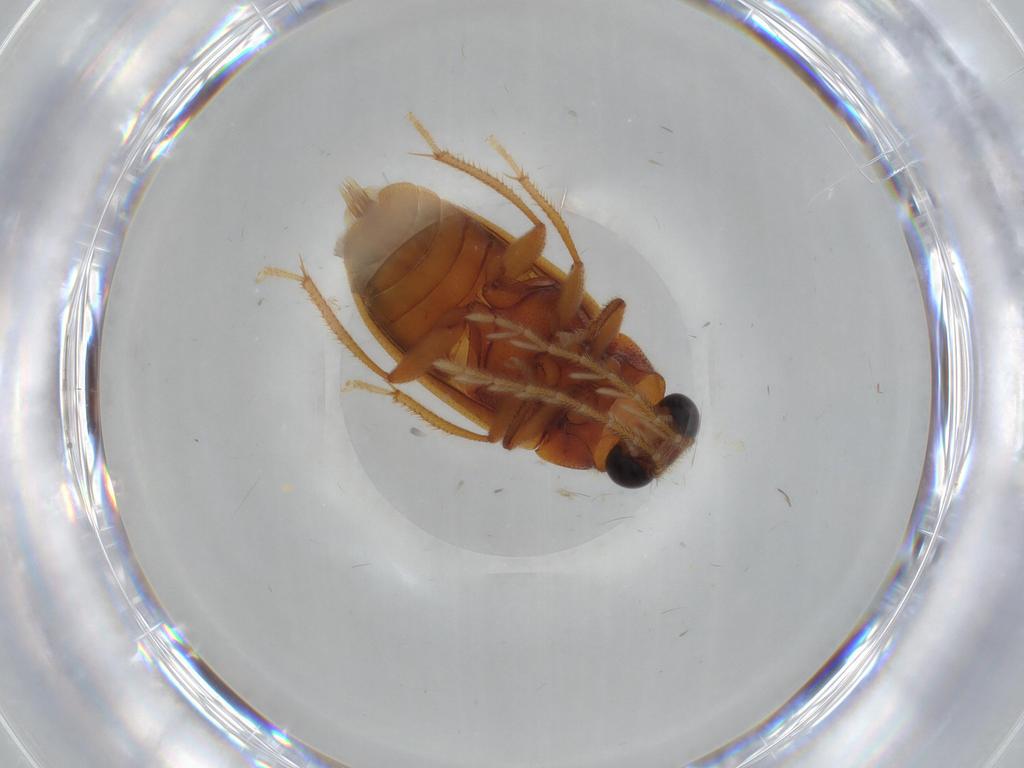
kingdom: Animalia
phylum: Arthropoda
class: Insecta
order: Coleoptera
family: Ptilodactylidae
